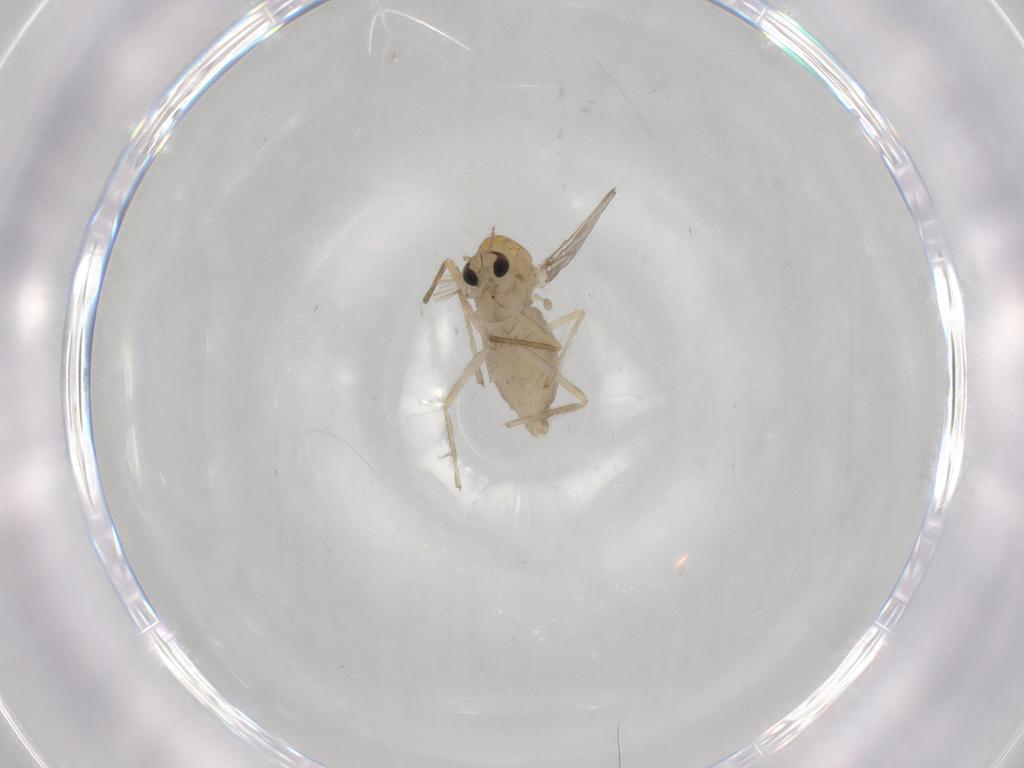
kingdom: Animalia
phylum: Arthropoda
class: Insecta
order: Diptera
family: Chironomidae
